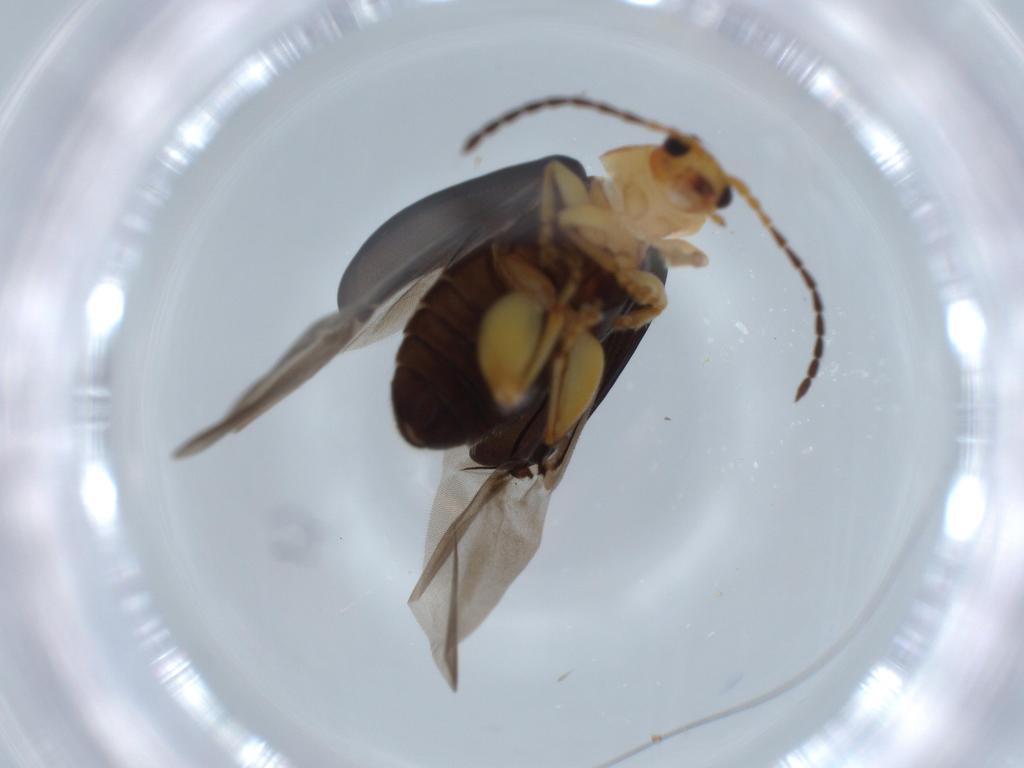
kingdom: Animalia
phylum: Arthropoda
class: Insecta
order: Coleoptera
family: Chrysomelidae
